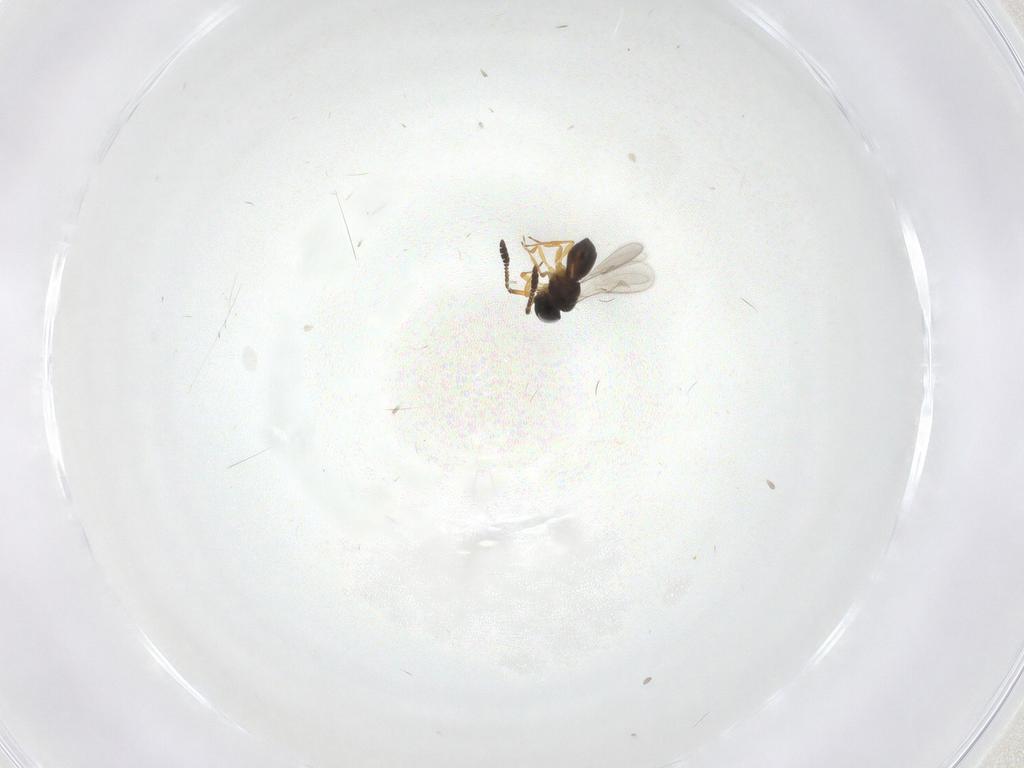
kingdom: Animalia
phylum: Arthropoda
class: Insecta
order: Hymenoptera
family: Scelionidae
